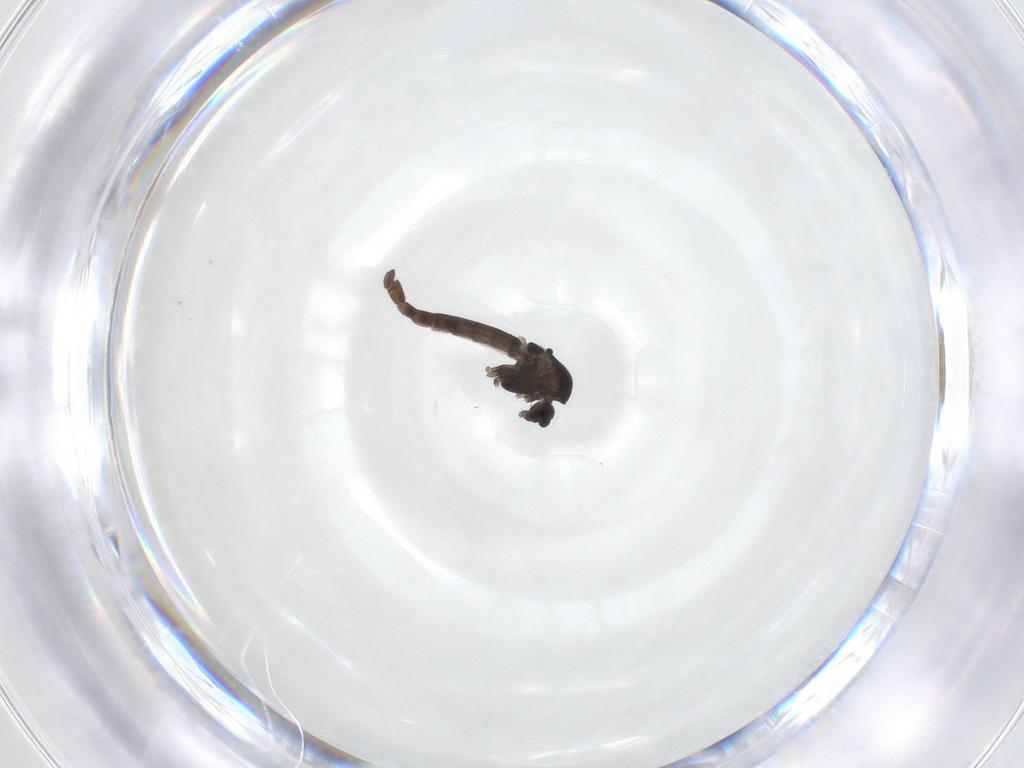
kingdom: Animalia
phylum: Arthropoda
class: Insecta
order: Diptera
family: Chironomidae
